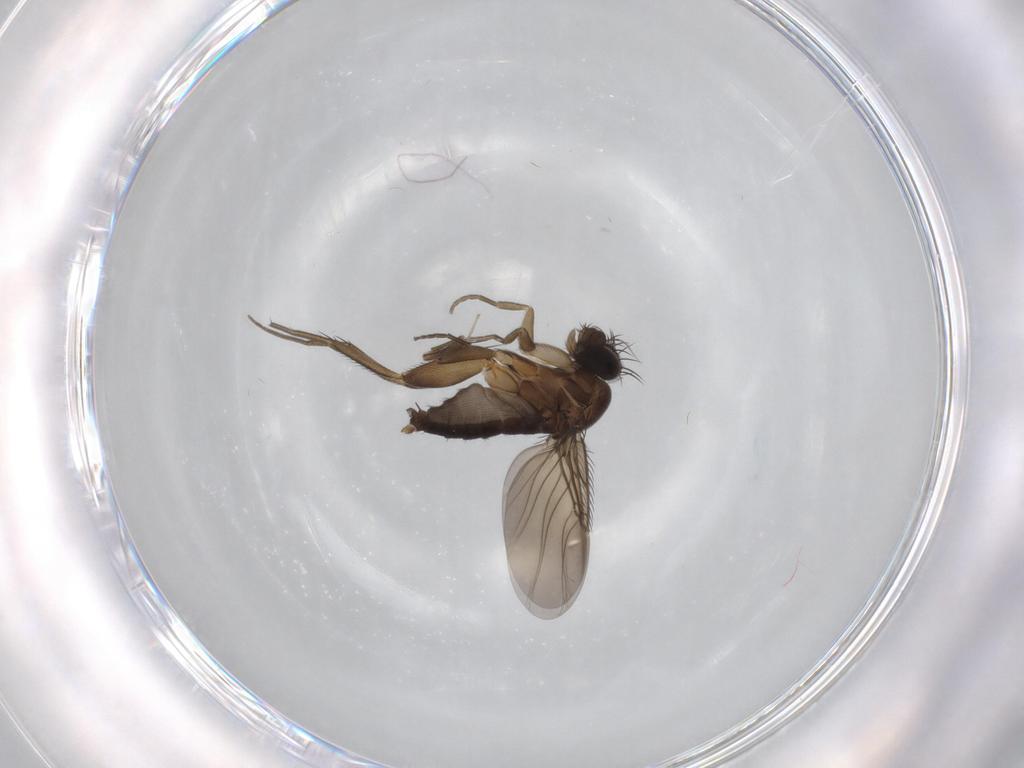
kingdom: Animalia
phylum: Arthropoda
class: Insecta
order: Diptera
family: Phoridae
